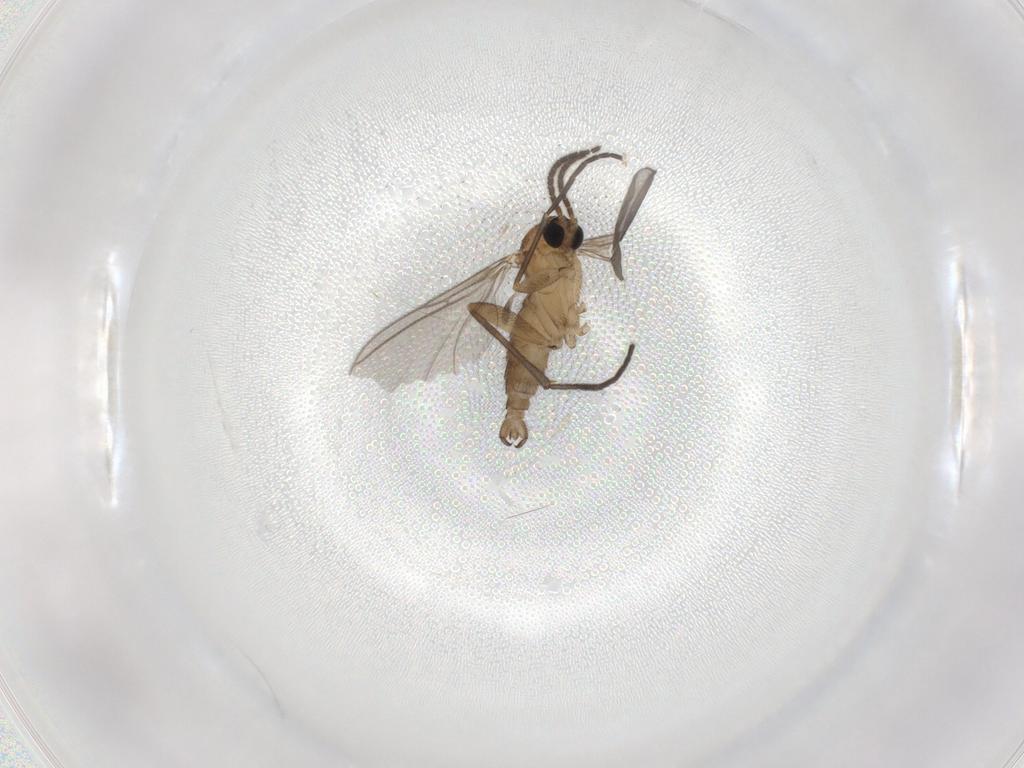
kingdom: Animalia
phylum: Arthropoda
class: Insecta
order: Diptera
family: Sciaridae
